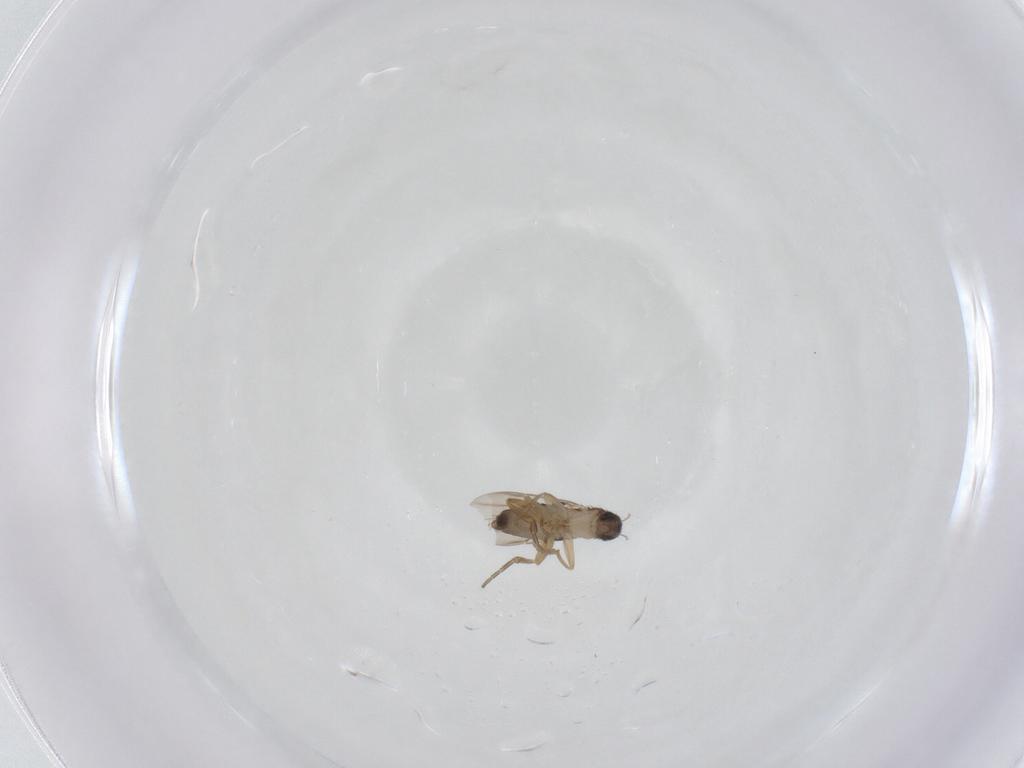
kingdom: Animalia
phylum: Arthropoda
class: Insecta
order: Diptera
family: Phoridae
